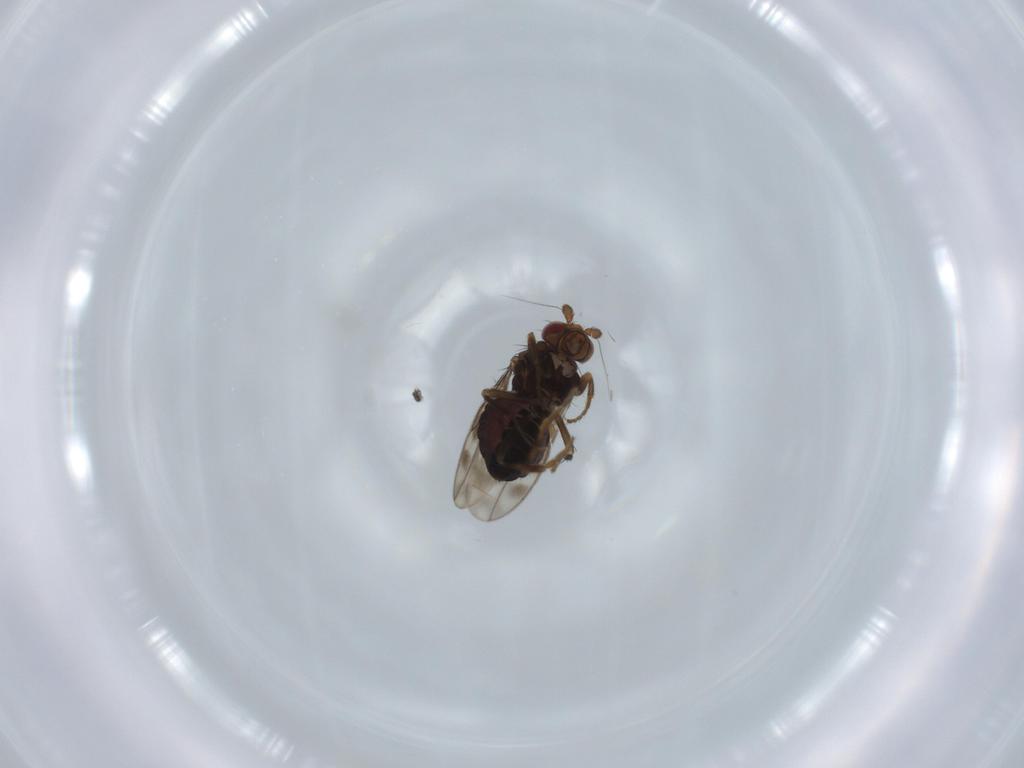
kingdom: Animalia
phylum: Arthropoda
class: Insecta
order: Diptera
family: Sphaeroceridae
